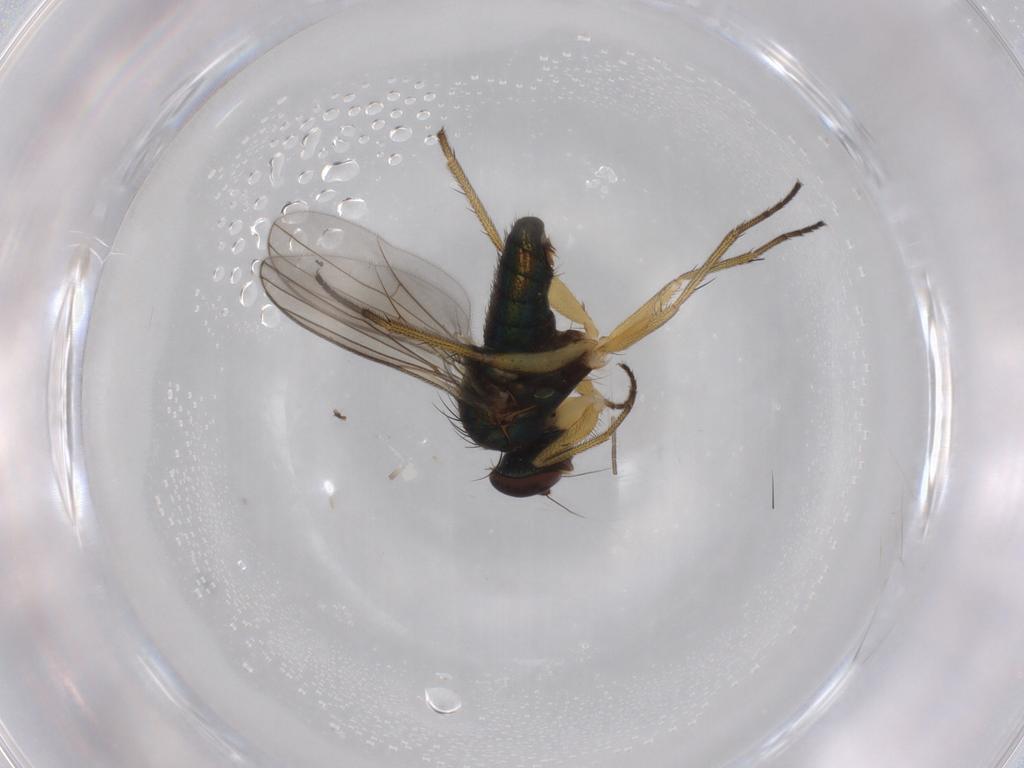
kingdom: Animalia
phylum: Arthropoda
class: Insecta
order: Diptera
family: Chironomidae
